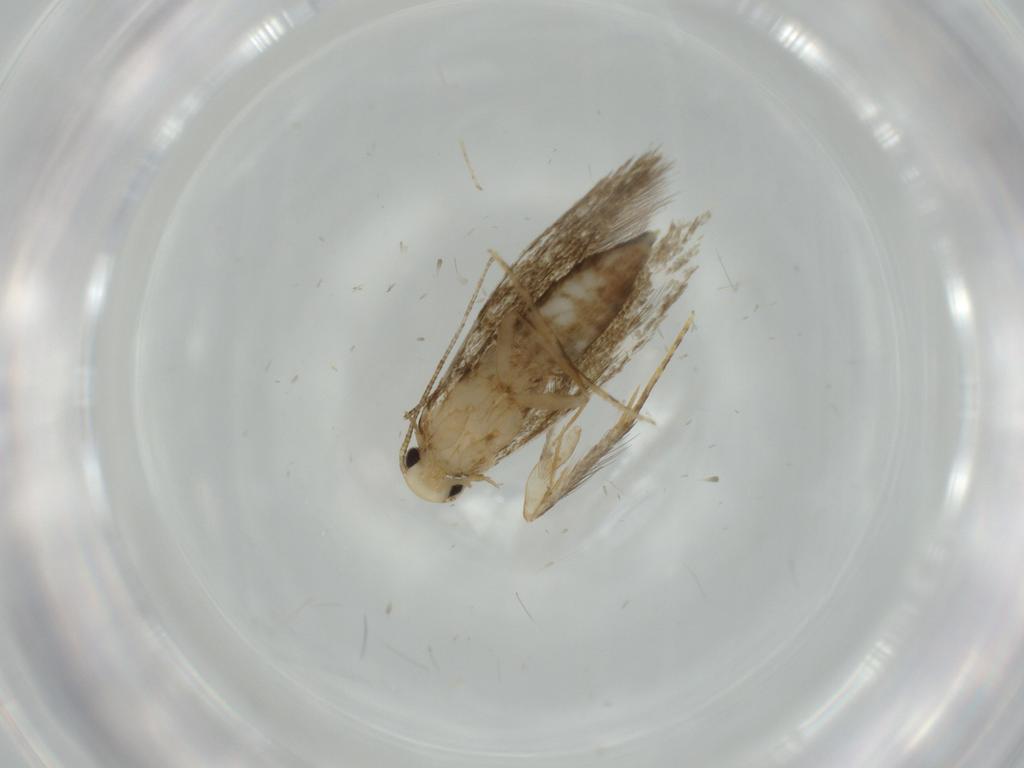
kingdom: Animalia
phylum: Arthropoda
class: Insecta
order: Lepidoptera
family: Tineidae
